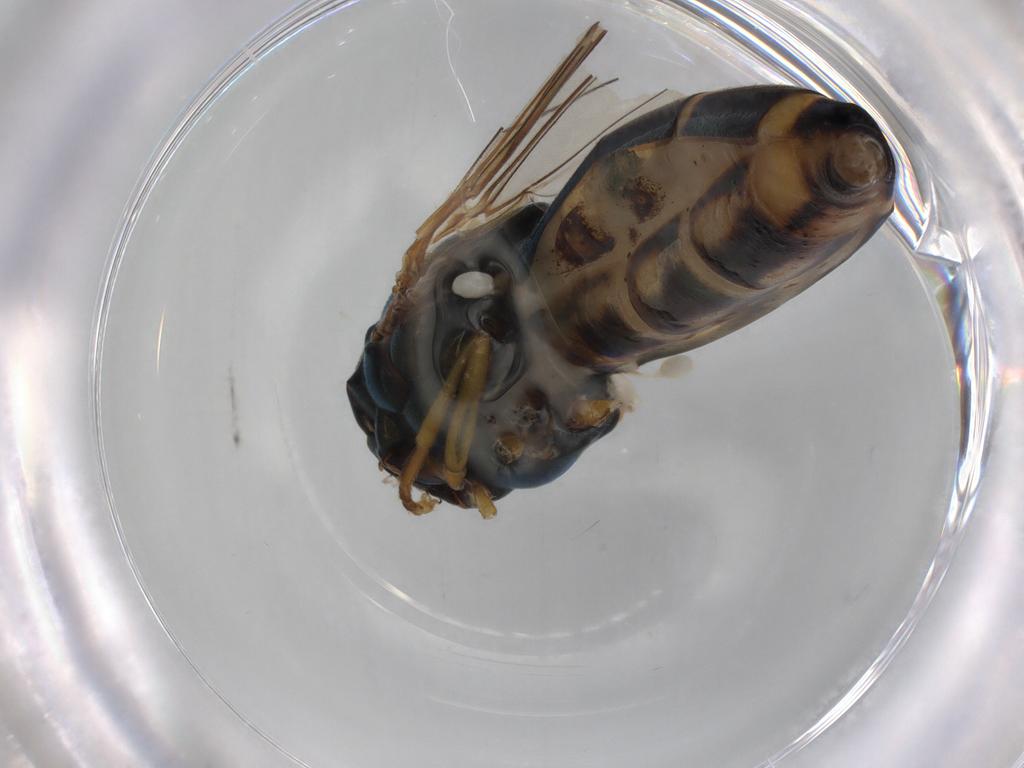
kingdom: Animalia
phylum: Arthropoda
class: Insecta
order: Diptera
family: Syrphidae
